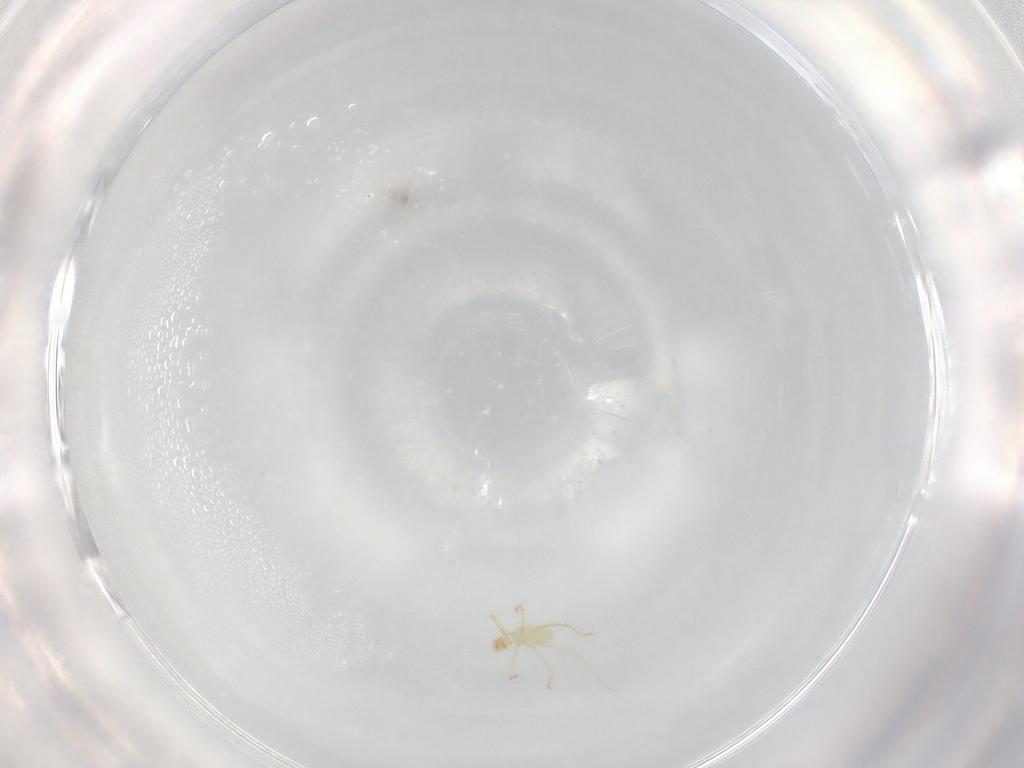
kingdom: Animalia
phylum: Arthropoda
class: Arachnida
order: Trombidiformes
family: Erythraeidae
